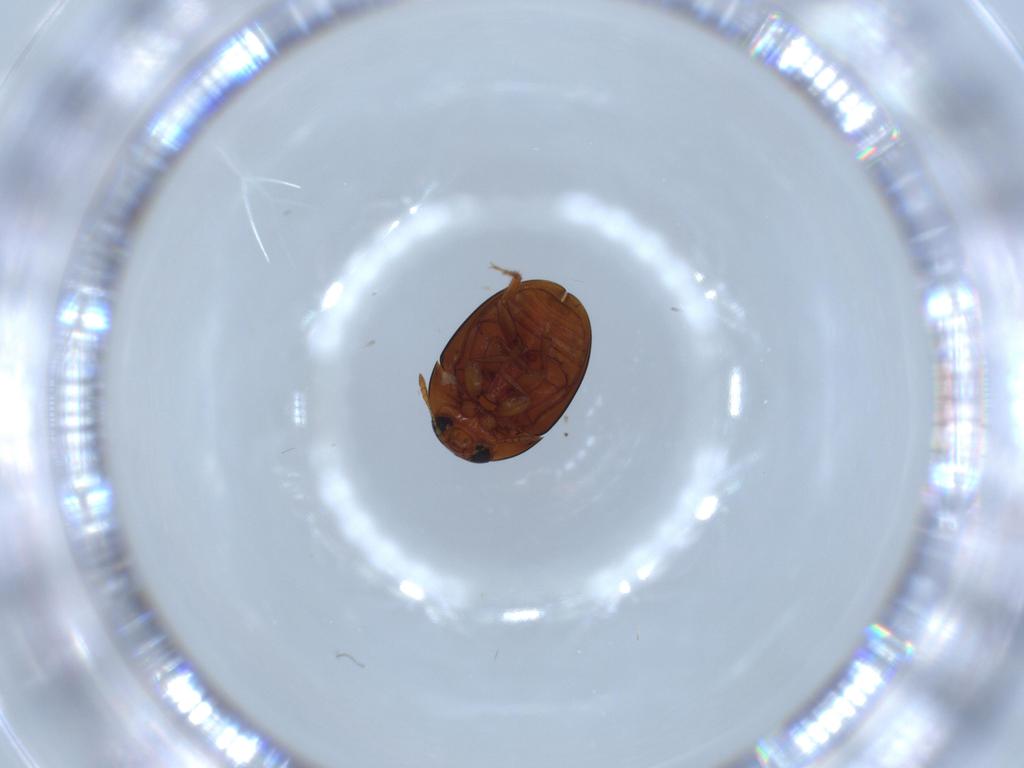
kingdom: Animalia
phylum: Arthropoda
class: Insecta
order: Coleoptera
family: Phalacridae
